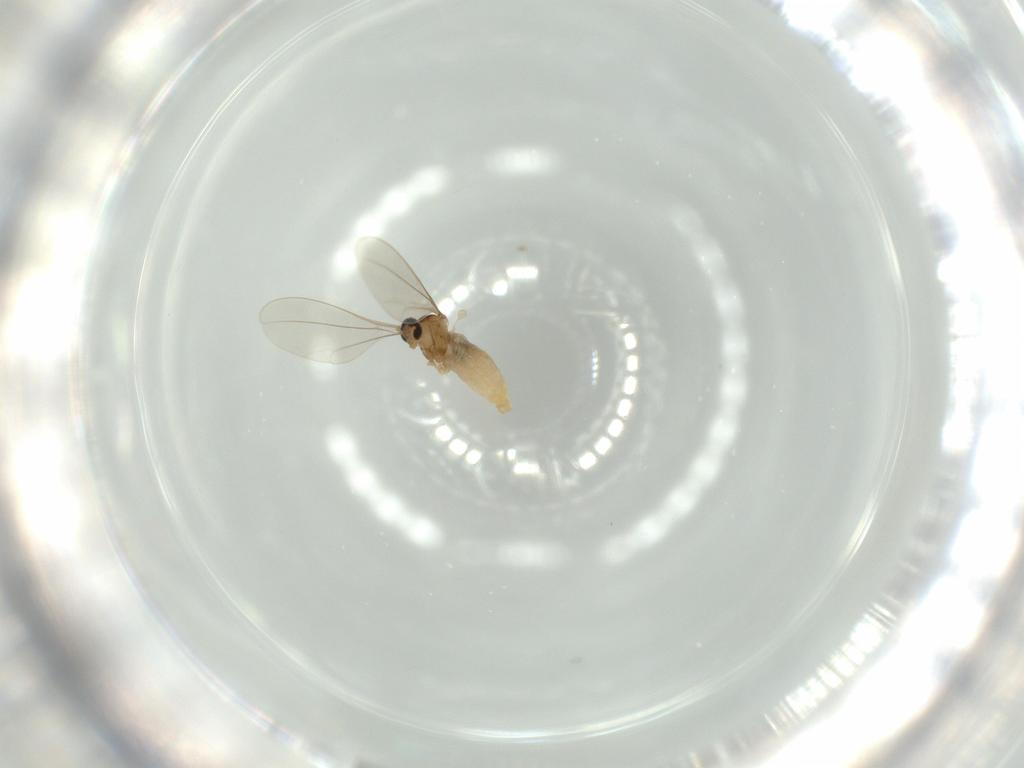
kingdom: Animalia
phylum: Arthropoda
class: Insecta
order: Diptera
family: Cecidomyiidae
